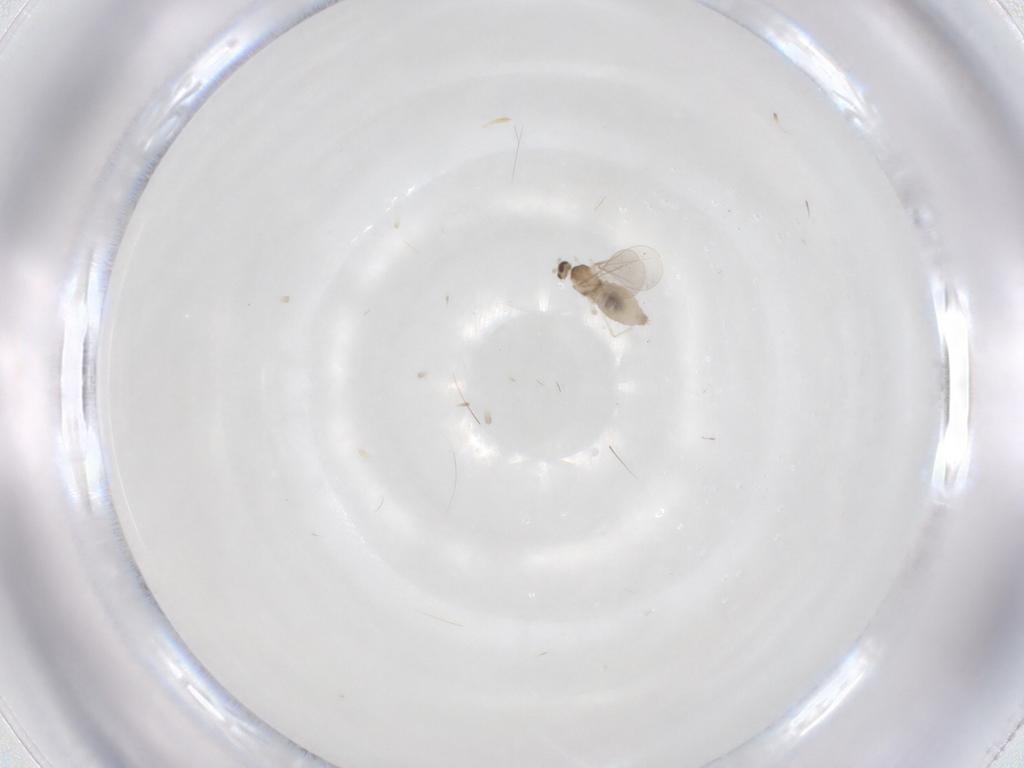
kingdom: Animalia
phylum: Arthropoda
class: Insecta
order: Diptera
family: Cecidomyiidae
